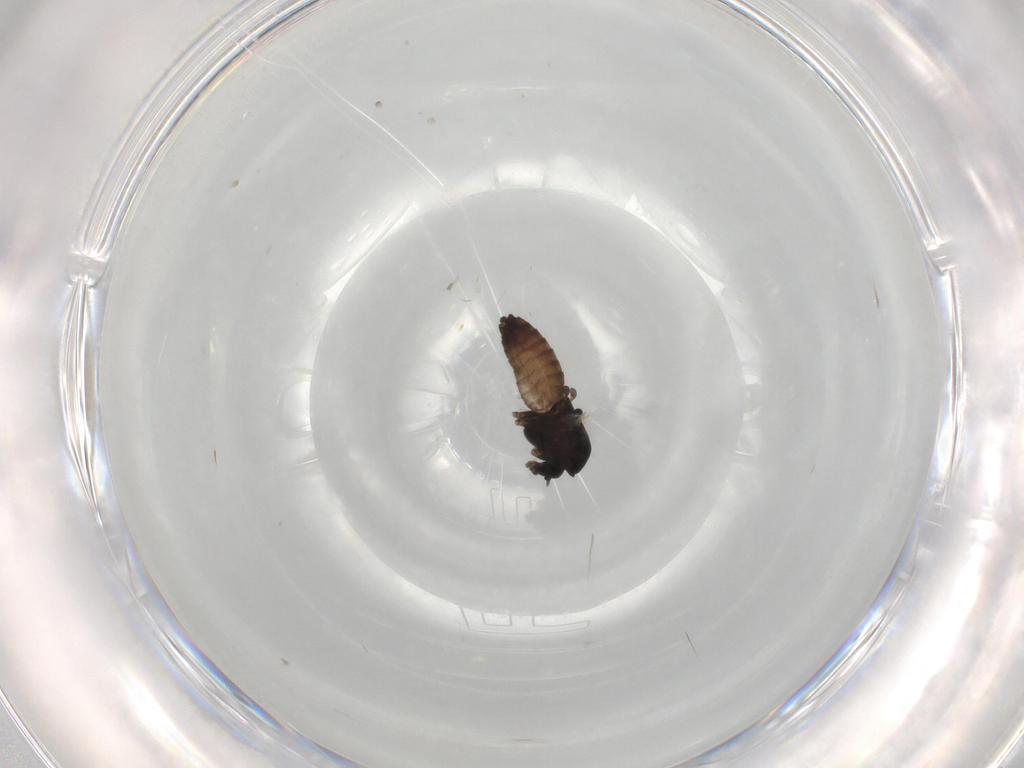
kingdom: Animalia
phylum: Arthropoda
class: Insecta
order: Diptera
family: Chironomidae
